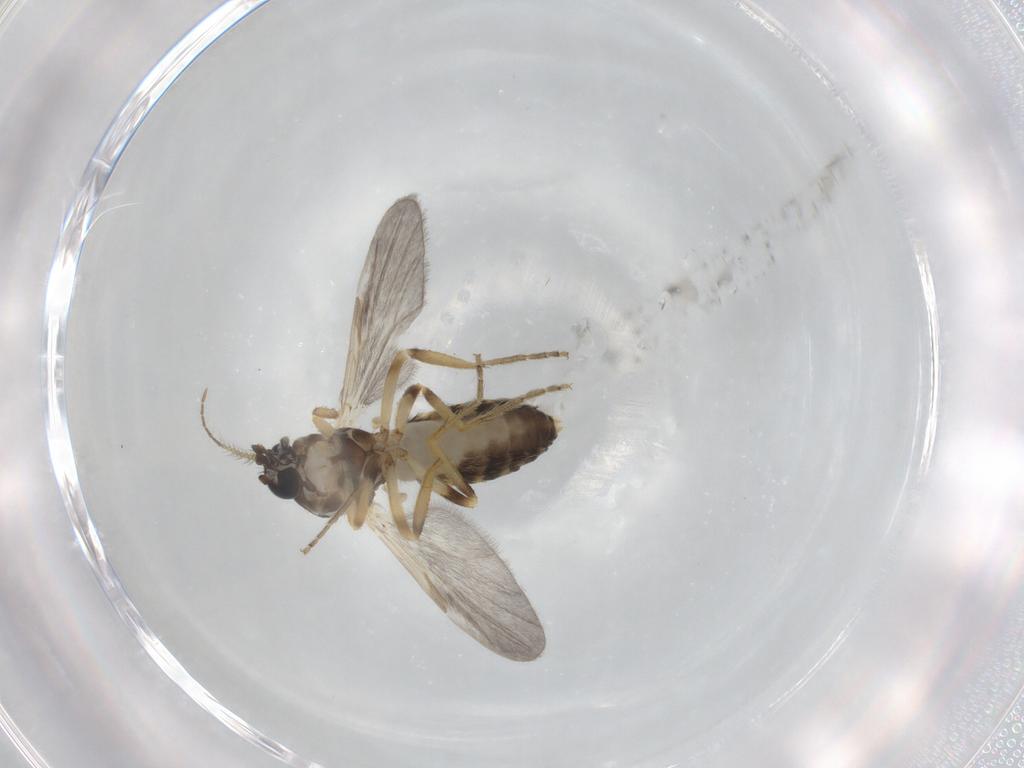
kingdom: Animalia
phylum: Arthropoda
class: Insecta
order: Diptera
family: Ceratopogonidae
